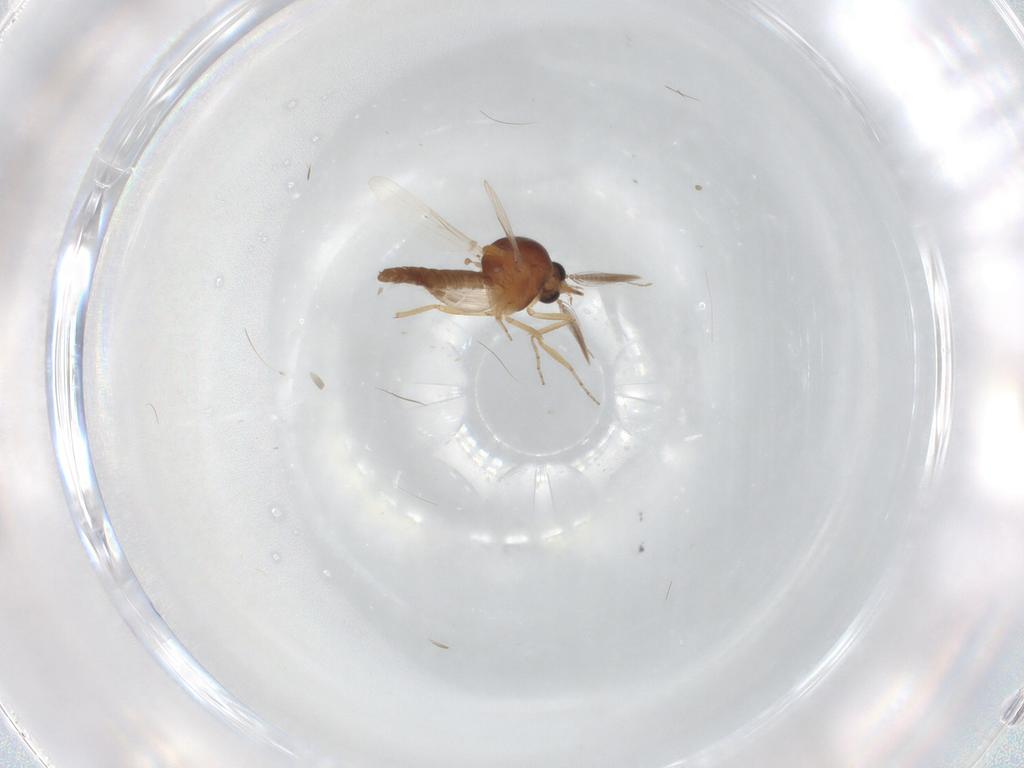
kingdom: Animalia
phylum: Arthropoda
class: Insecta
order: Diptera
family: Ceratopogonidae
